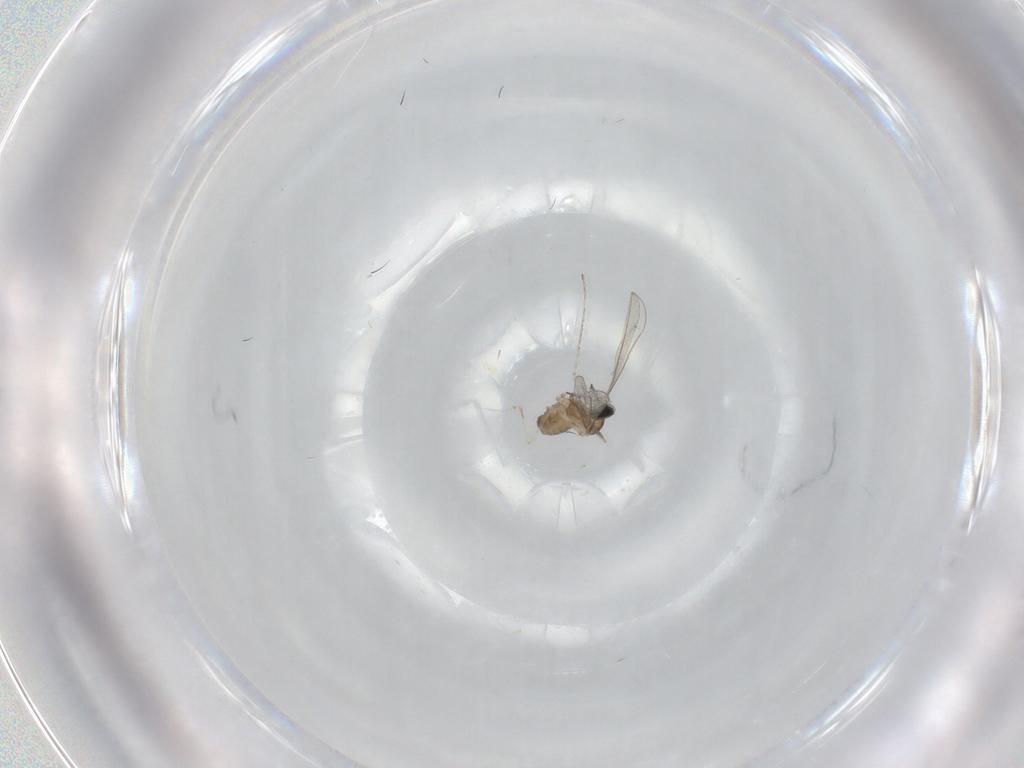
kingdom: Animalia
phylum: Arthropoda
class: Insecta
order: Diptera
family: Cecidomyiidae
